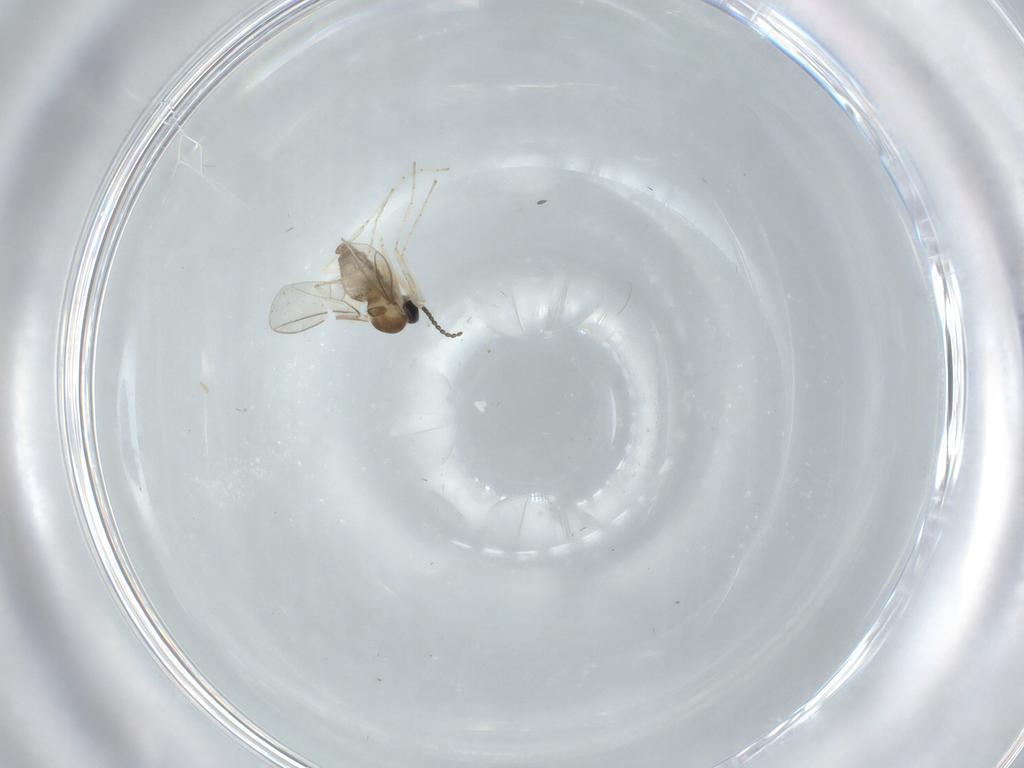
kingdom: Animalia
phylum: Arthropoda
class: Insecta
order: Diptera
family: Cecidomyiidae
